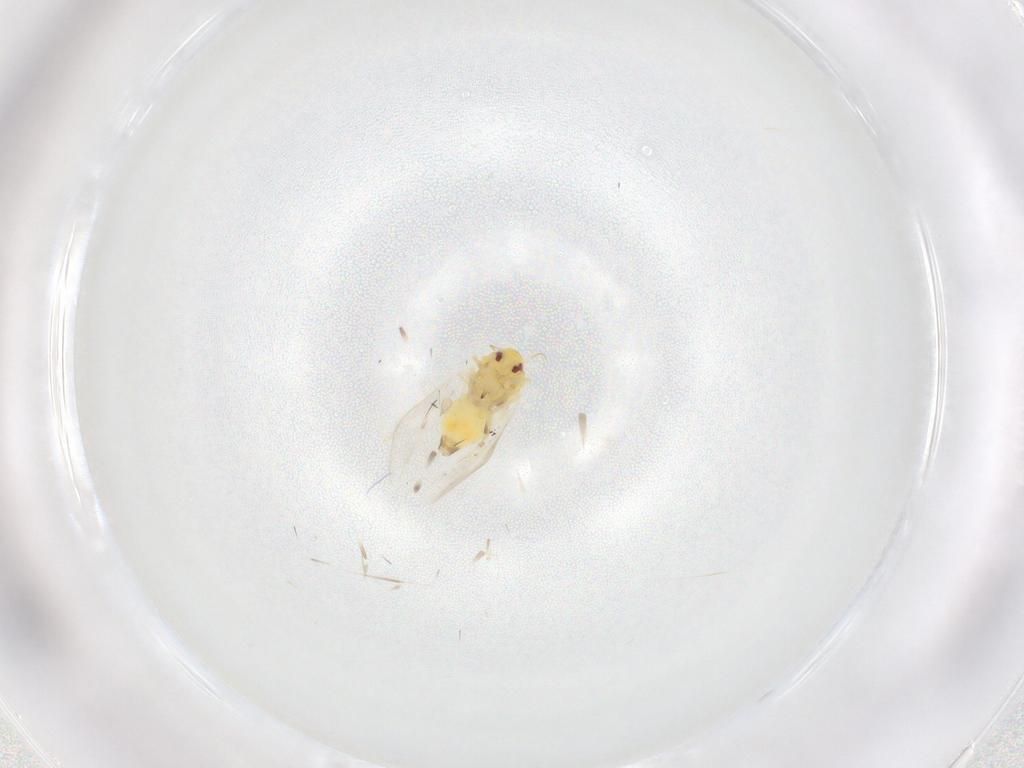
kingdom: Animalia
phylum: Arthropoda
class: Insecta
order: Hemiptera
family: Aleyrodidae
